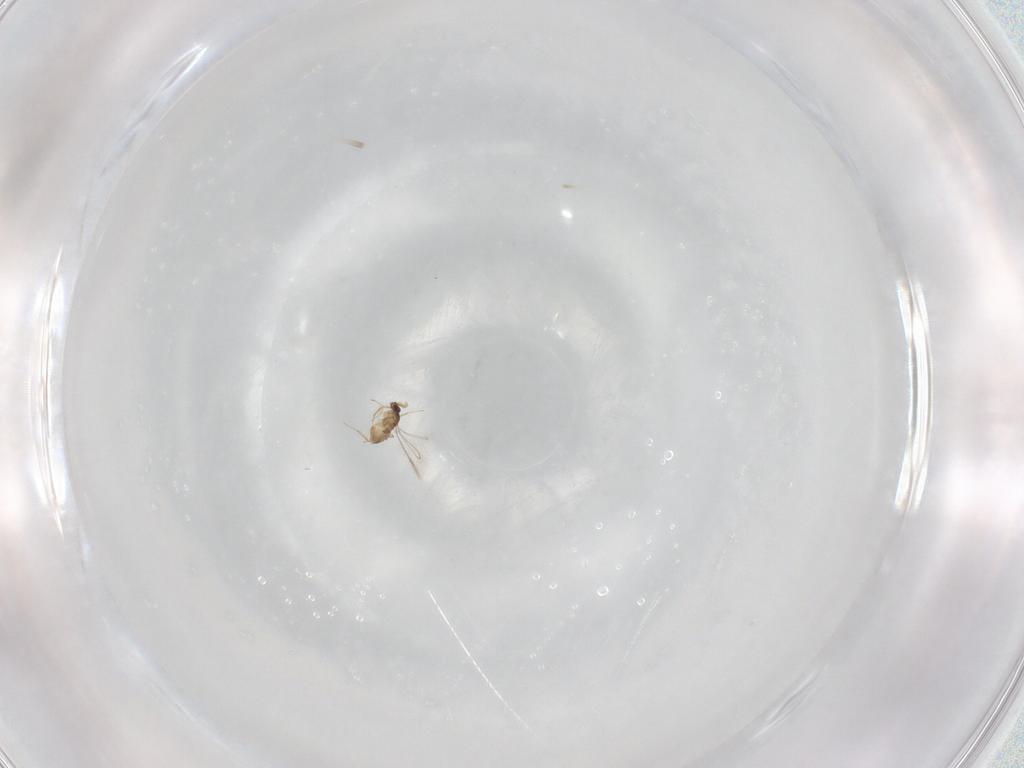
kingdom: Animalia
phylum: Arthropoda
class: Insecta
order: Hymenoptera
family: Mymaridae
